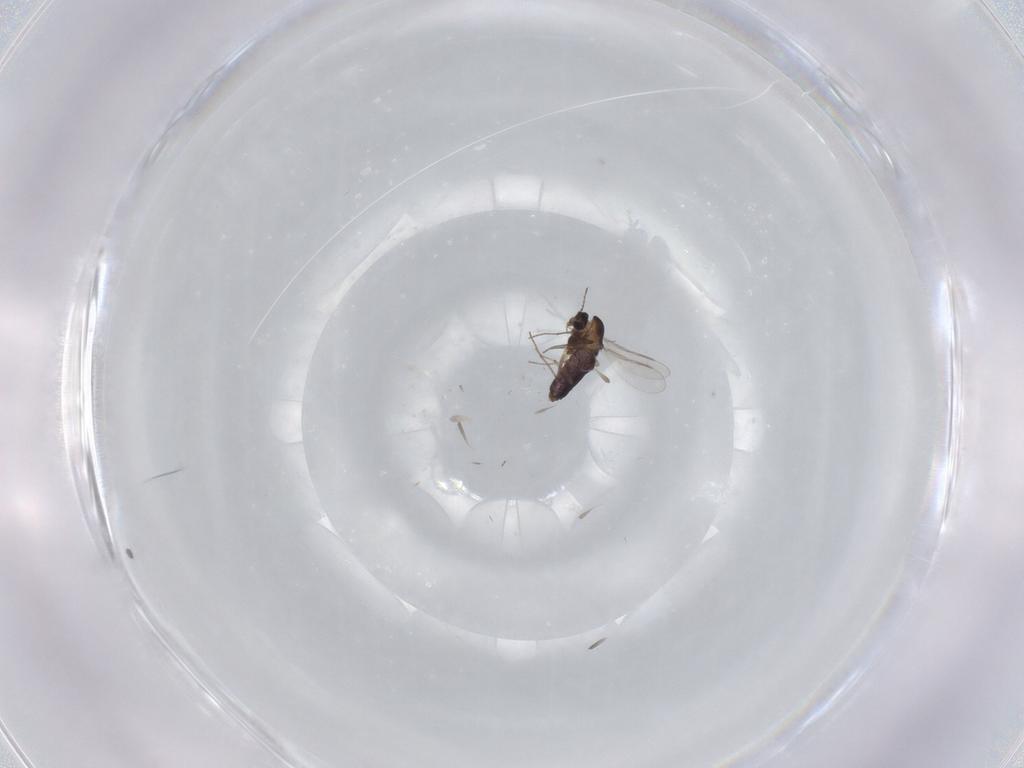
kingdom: Animalia
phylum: Arthropoda
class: Insecta
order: Diptera
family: Chironomidae
